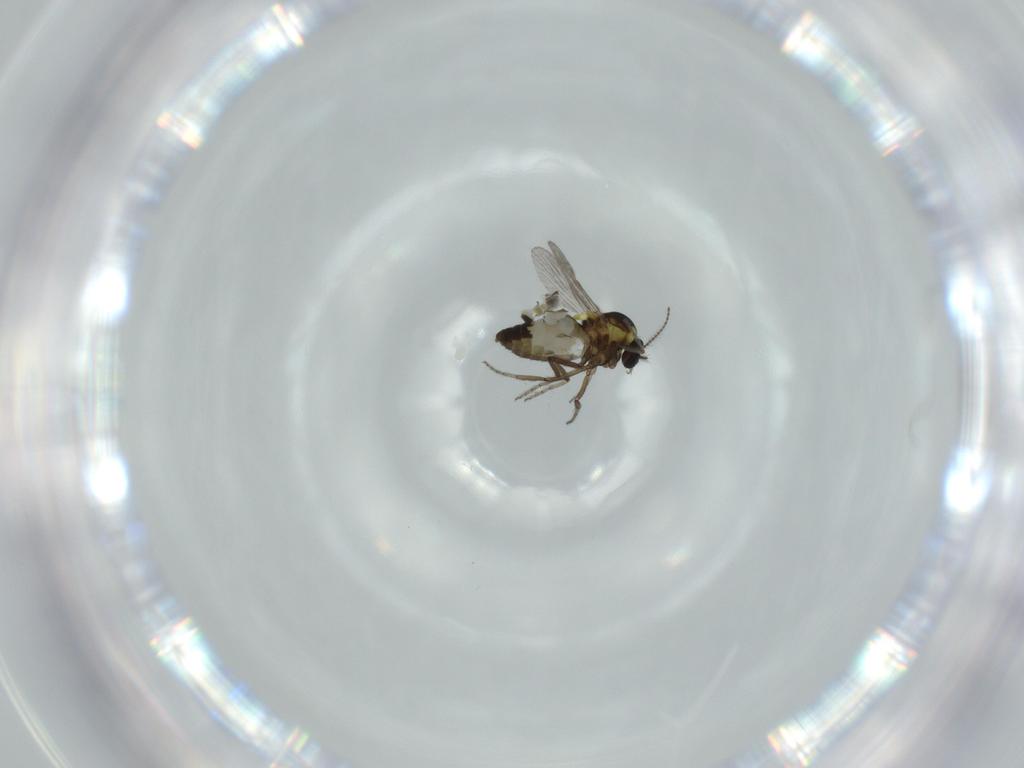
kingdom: Animalia
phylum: Arthropoda
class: Insecta
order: Diptera
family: Ceratopogonidae
